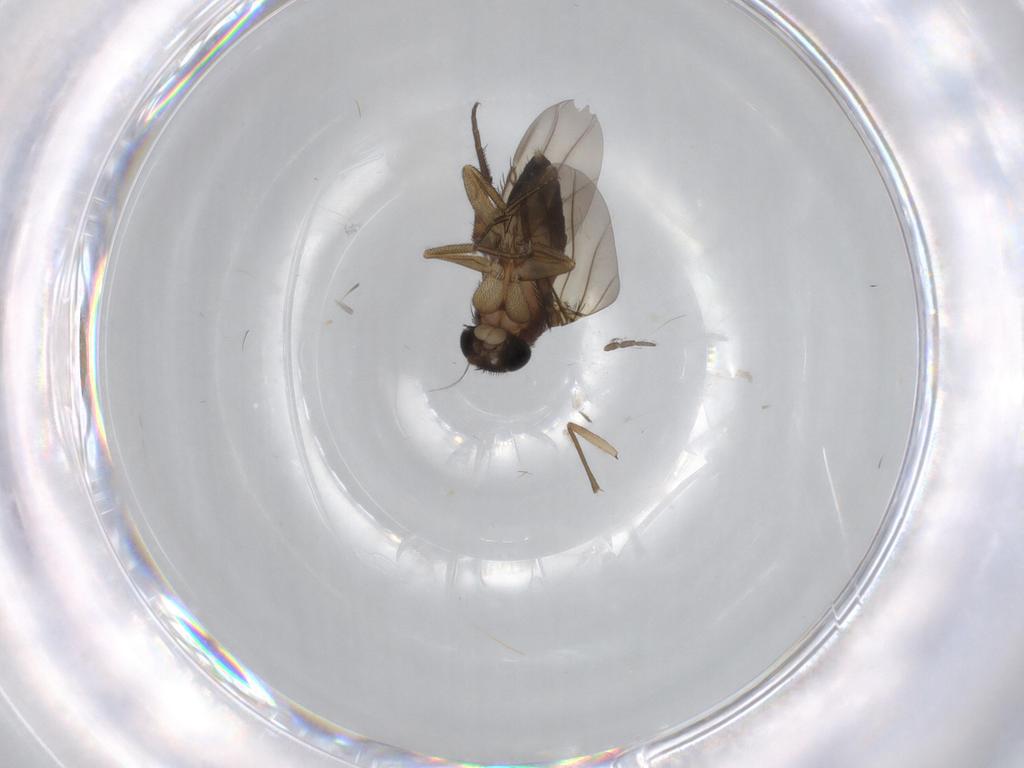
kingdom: Animalia
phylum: Arthropoda
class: Insecta
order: Diptera
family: Phoridae
